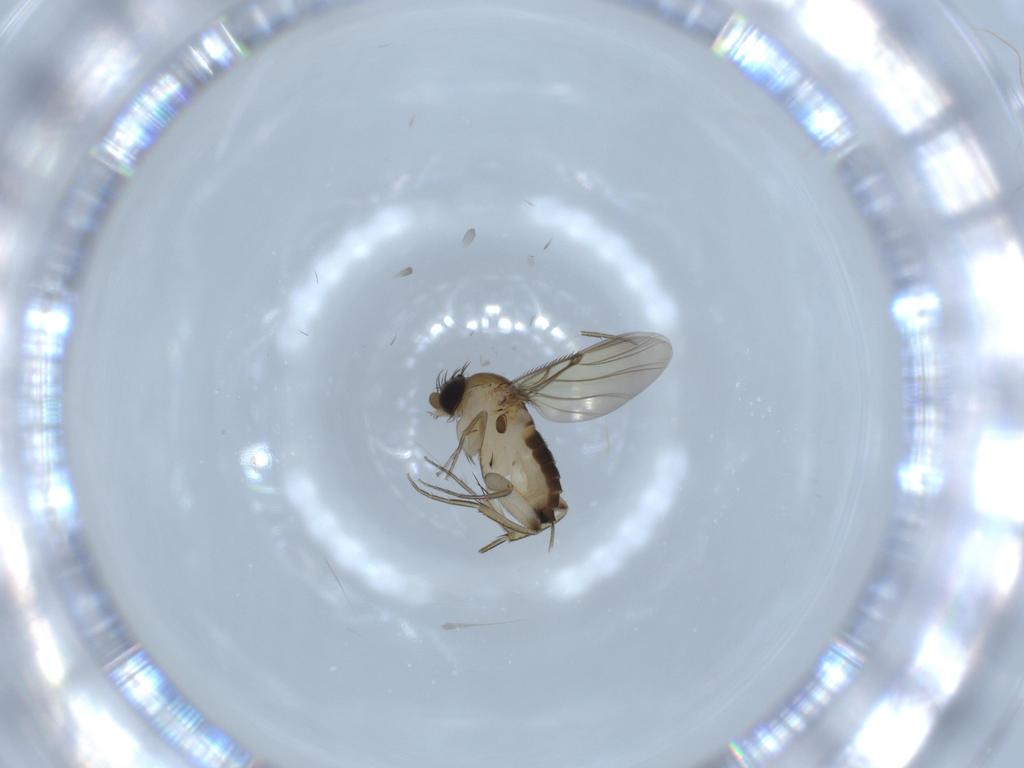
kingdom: Animalia
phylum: Arthropoda
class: Insecta
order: Diptera
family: Phoridae
